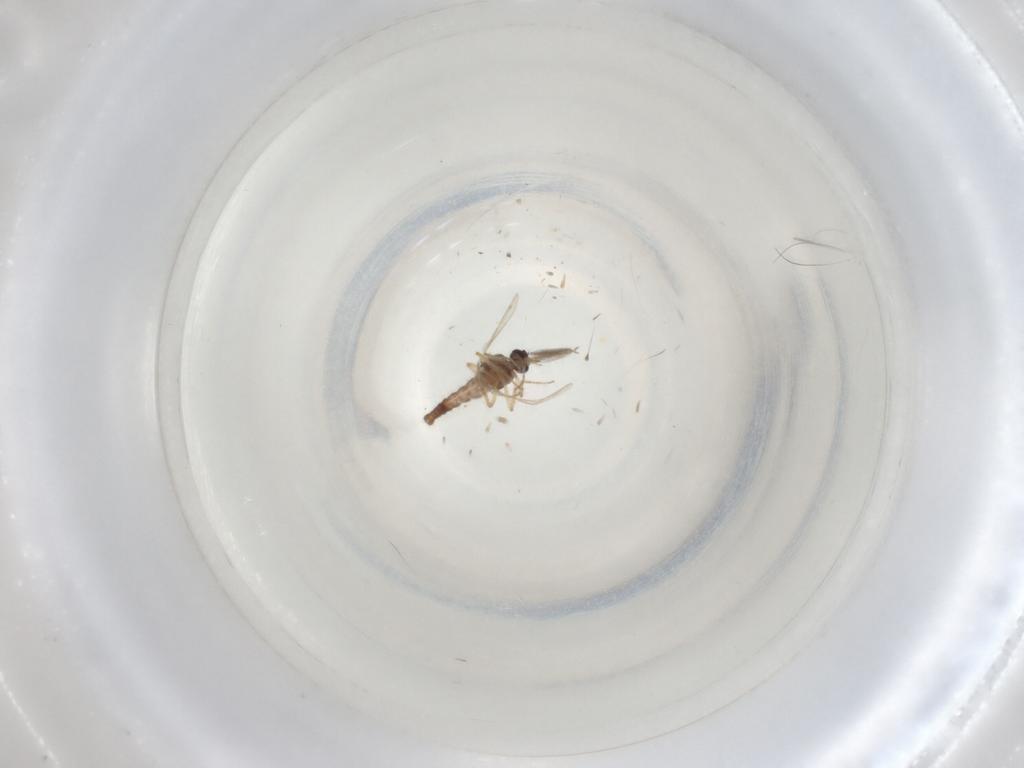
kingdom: Animalia
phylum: Arthropoda
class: Insecta
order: Diptera
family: Ceratopogonidae
